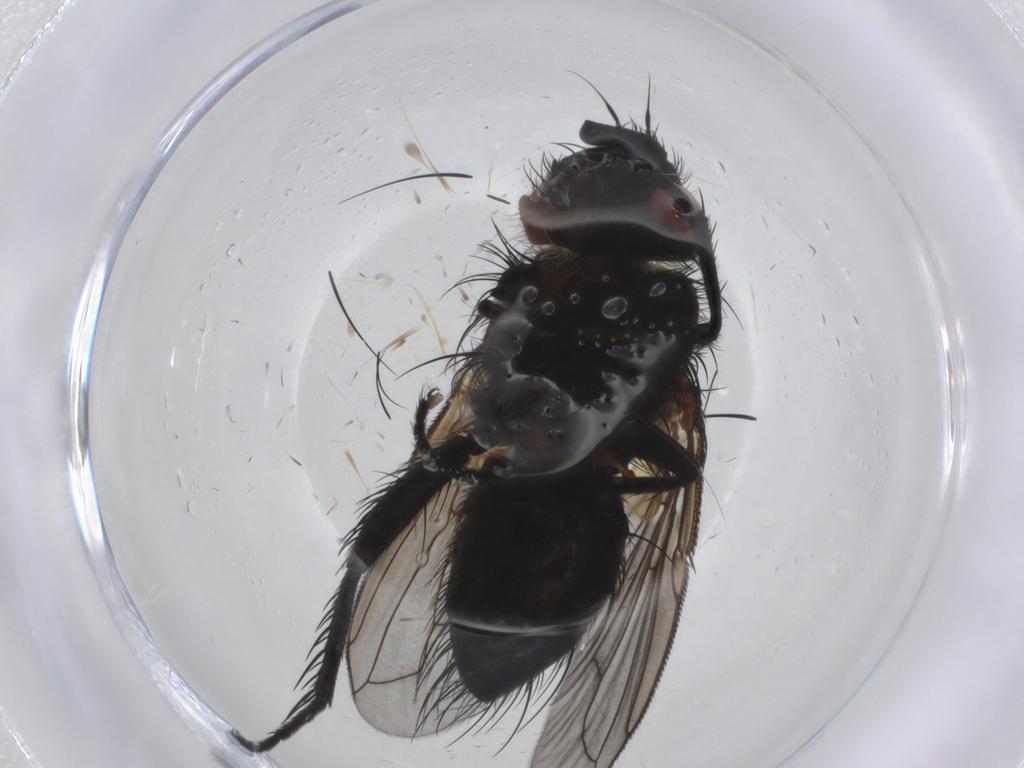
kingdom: Animalia
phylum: Arthropoda
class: Insecta
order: Diptera
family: Tachinidae
